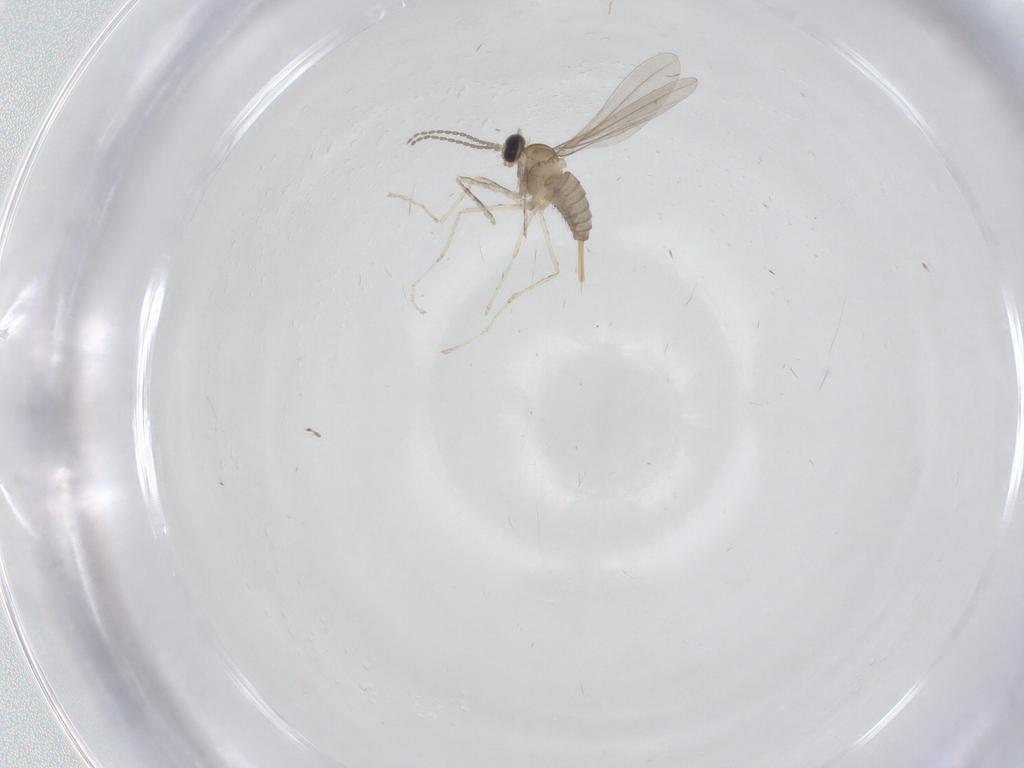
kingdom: Animalia
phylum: Arthropoda
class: Insecta
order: Diptera
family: Cecidomyiidae
